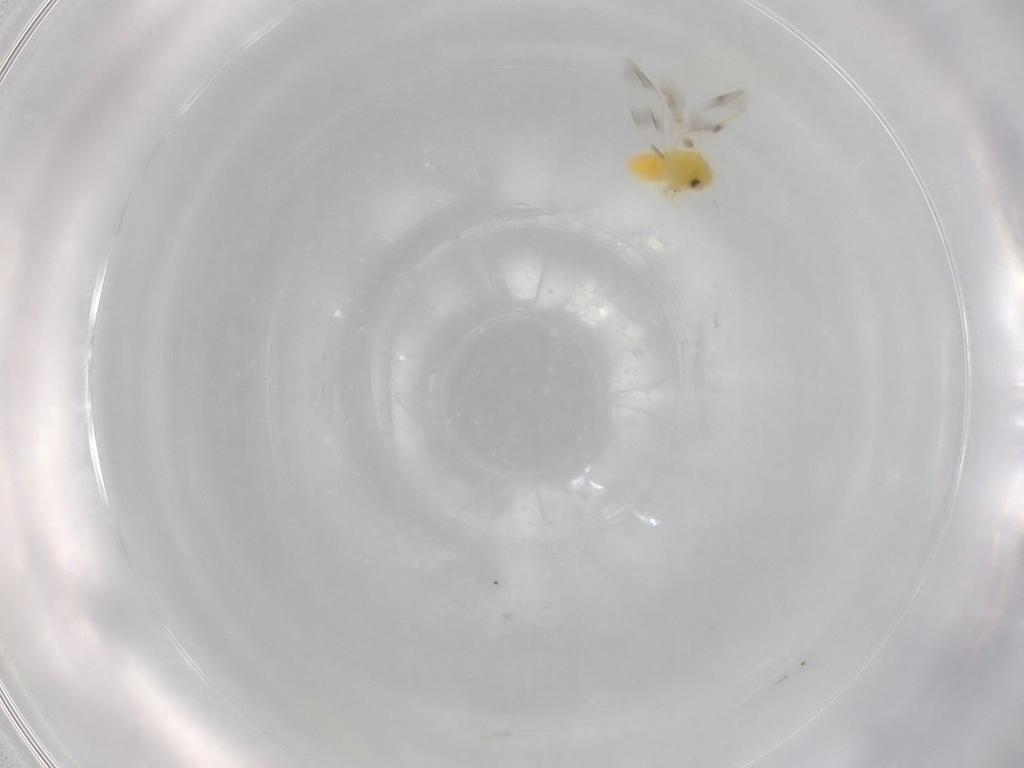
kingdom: Animalia
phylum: Arthropoda
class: Insecta
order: Hemiptera
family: Aleyrodidae
